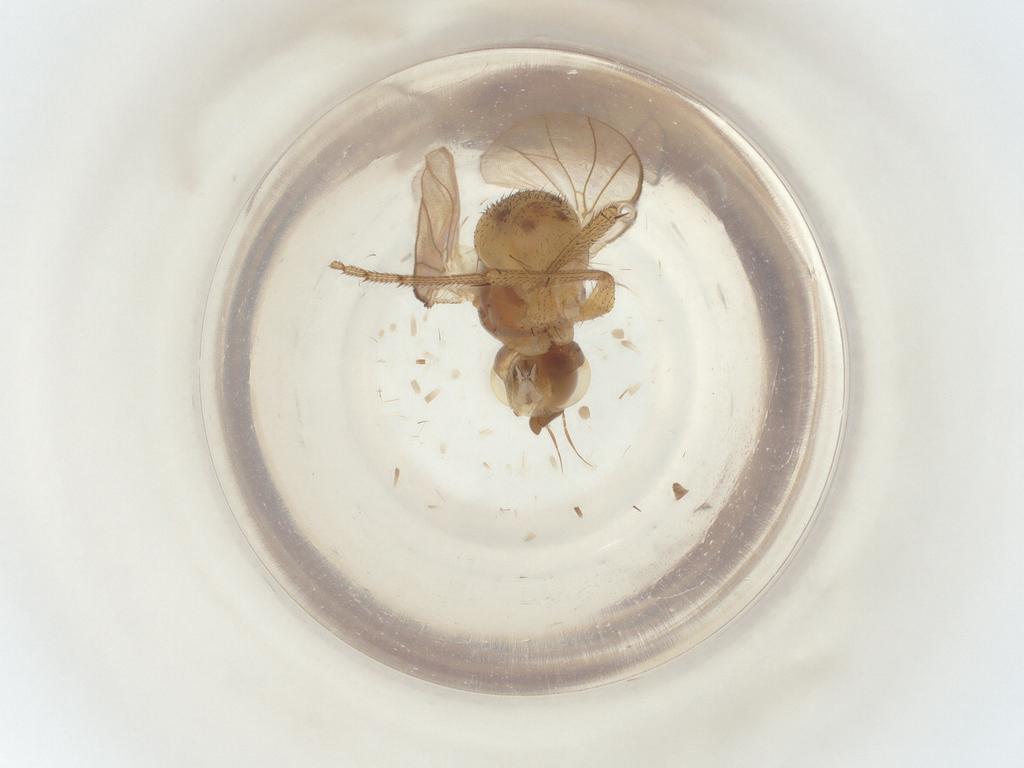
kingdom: Animalia
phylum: Arthropoda
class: Insecta
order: Diptera
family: Muscidae
